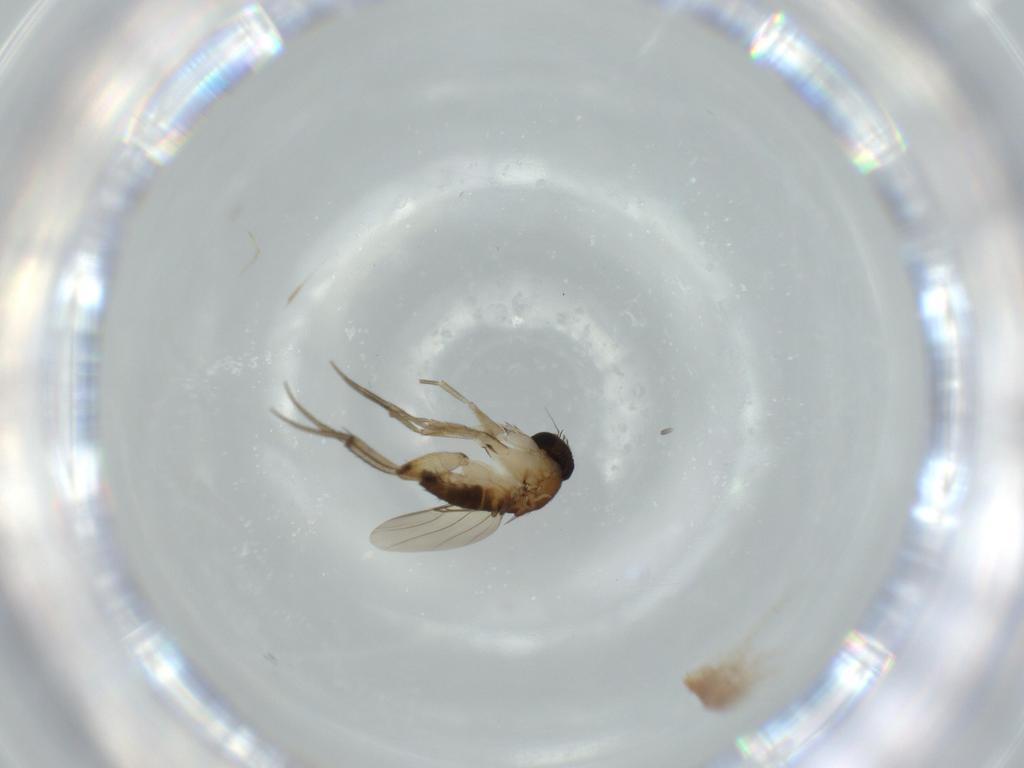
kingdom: Animalia
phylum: Arthropoda
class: Insecta
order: Diptera
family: Phoridae
